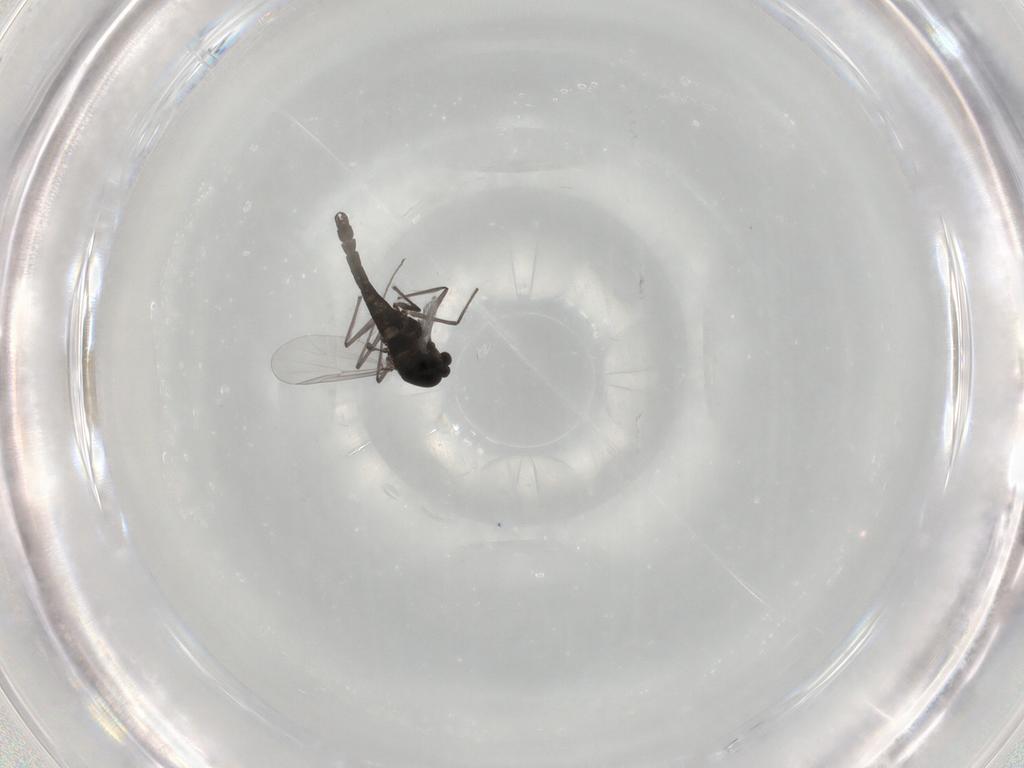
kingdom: Animalia
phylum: Arthropoda
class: Insecta
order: Diptera
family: Chironomidae
